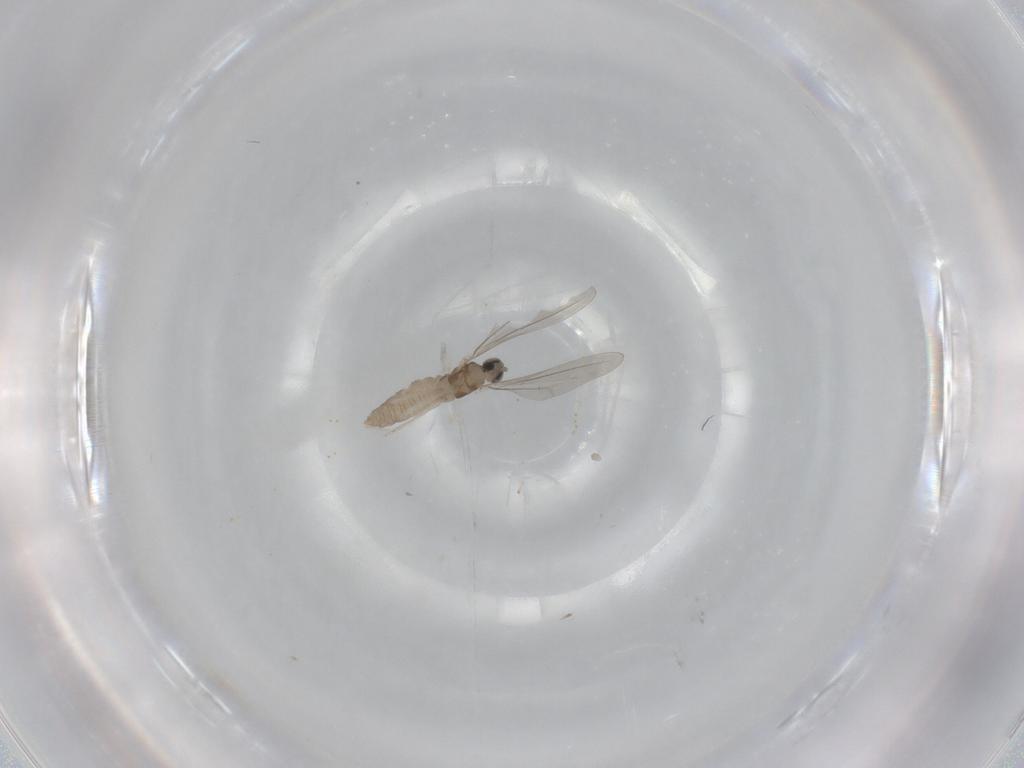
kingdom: Animalia
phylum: Arthropoda
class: Insecta
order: Diptera
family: Cecidomyiidae
